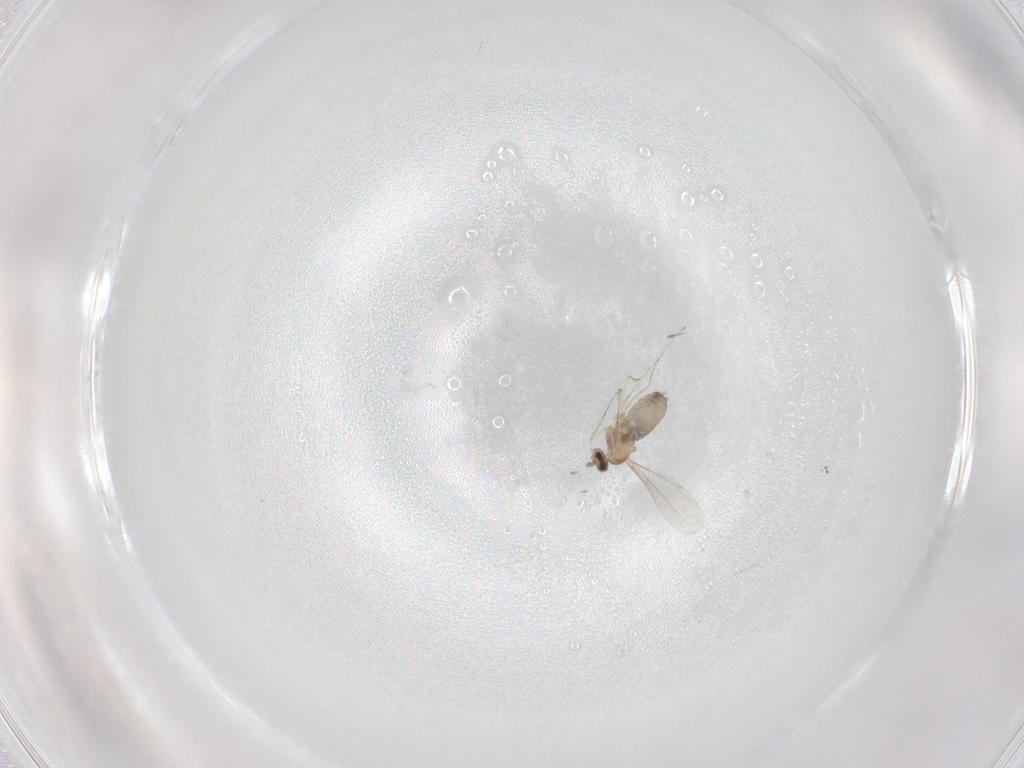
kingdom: Animalia
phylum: Arthropoda
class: Insecta
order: Diptera
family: Cecidomyiidae
